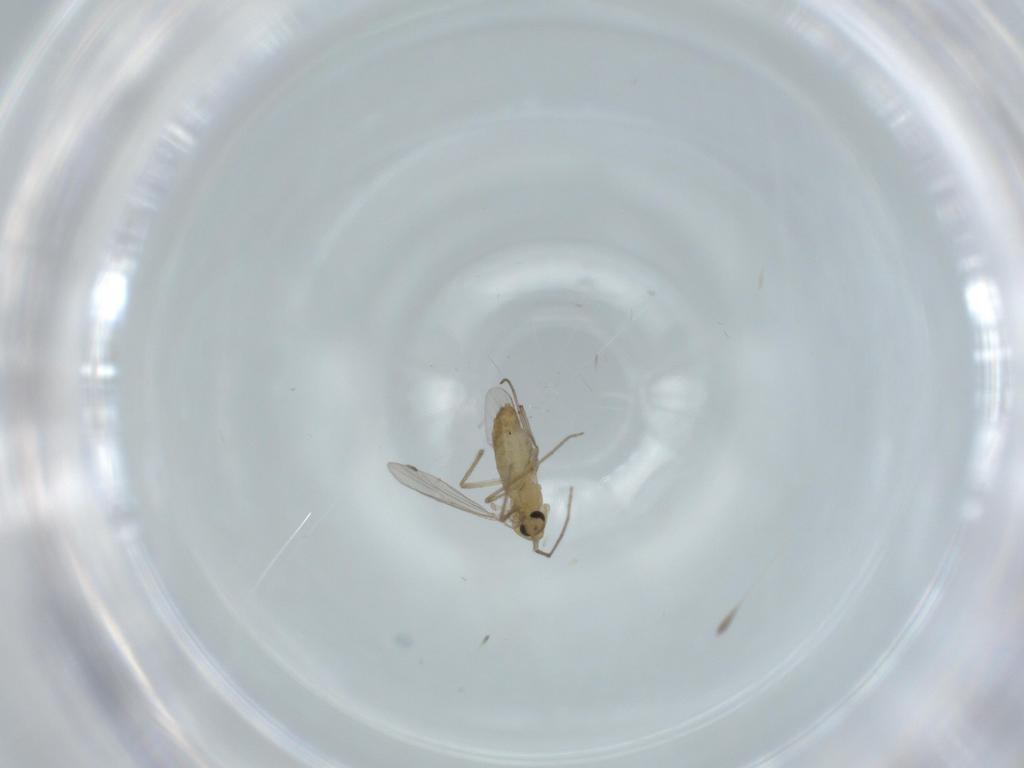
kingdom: Animalia
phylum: Arthropoda
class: Insecta
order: Diptera
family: Chironomidae
